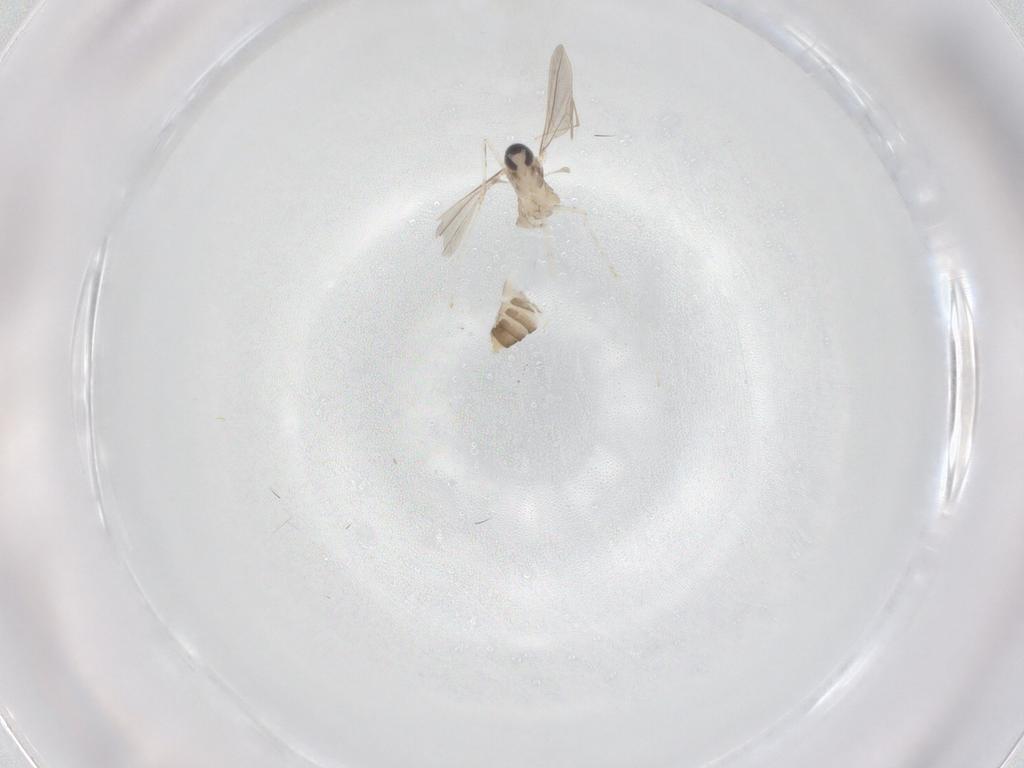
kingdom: Animalia
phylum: Arthropoda
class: Insecta
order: Diptera
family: Cecidomyiidae
